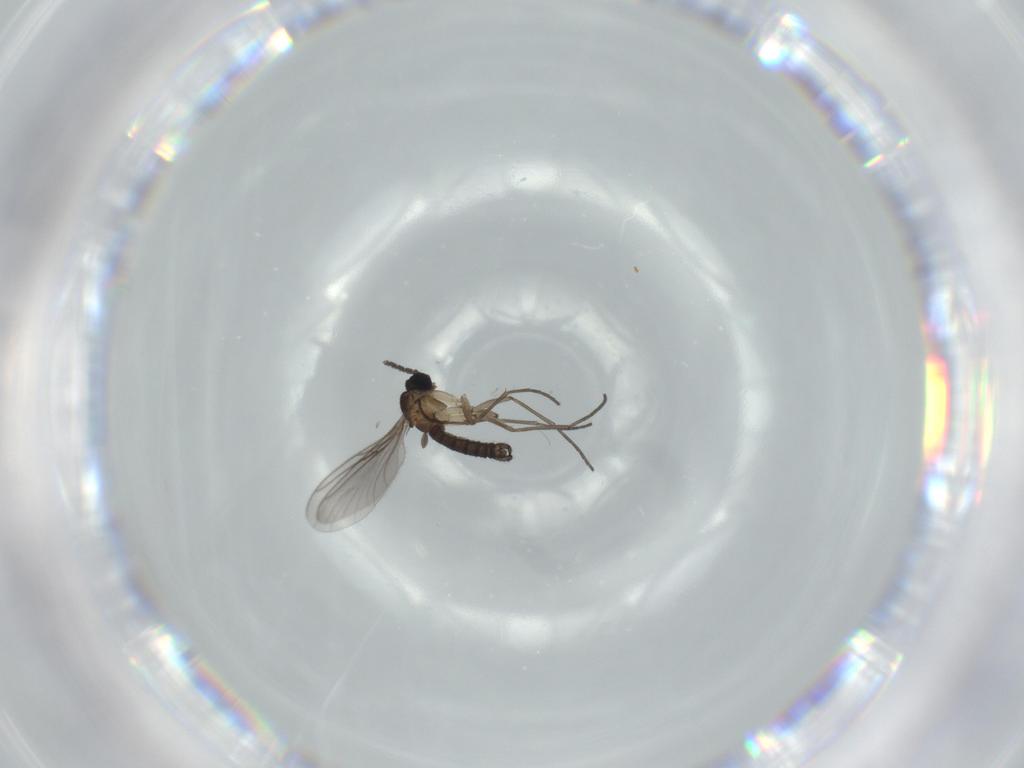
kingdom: Animalia
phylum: Arthropoda
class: Insecta
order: Diptera
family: Sciaridae
